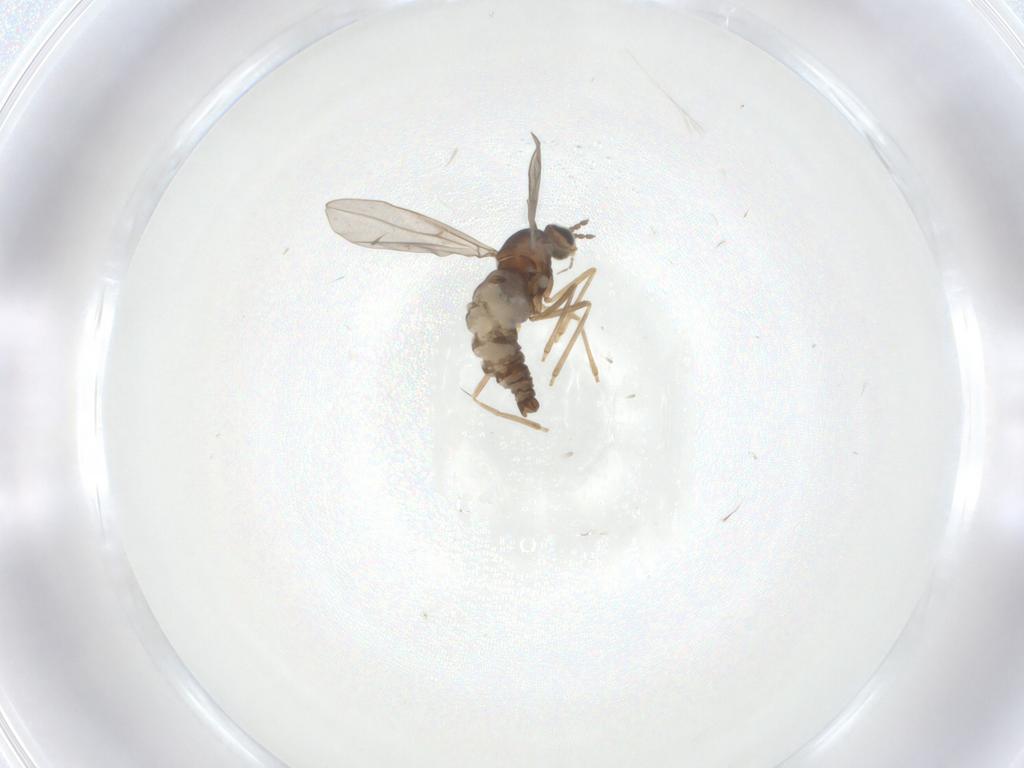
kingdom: Animalia
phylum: Arthropoda
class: Insecta
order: Diptera
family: Cecidomyiidae
